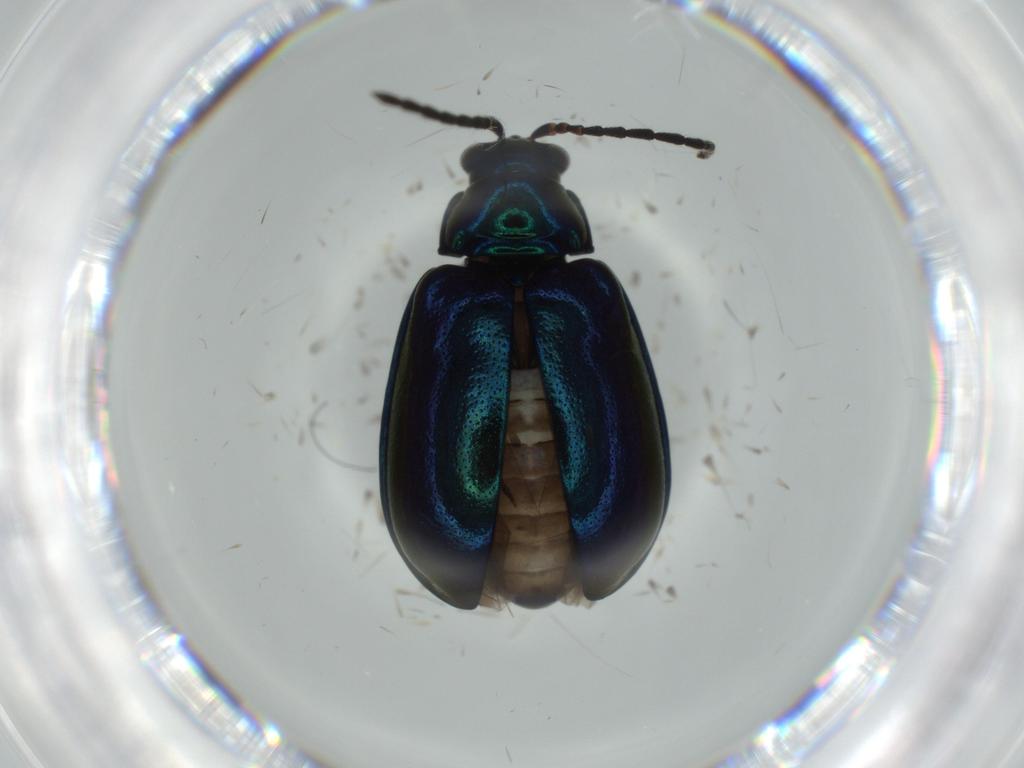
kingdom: Animalia
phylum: Arthropoda
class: Insecta
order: Coleoptera
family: Chrysomelidae
